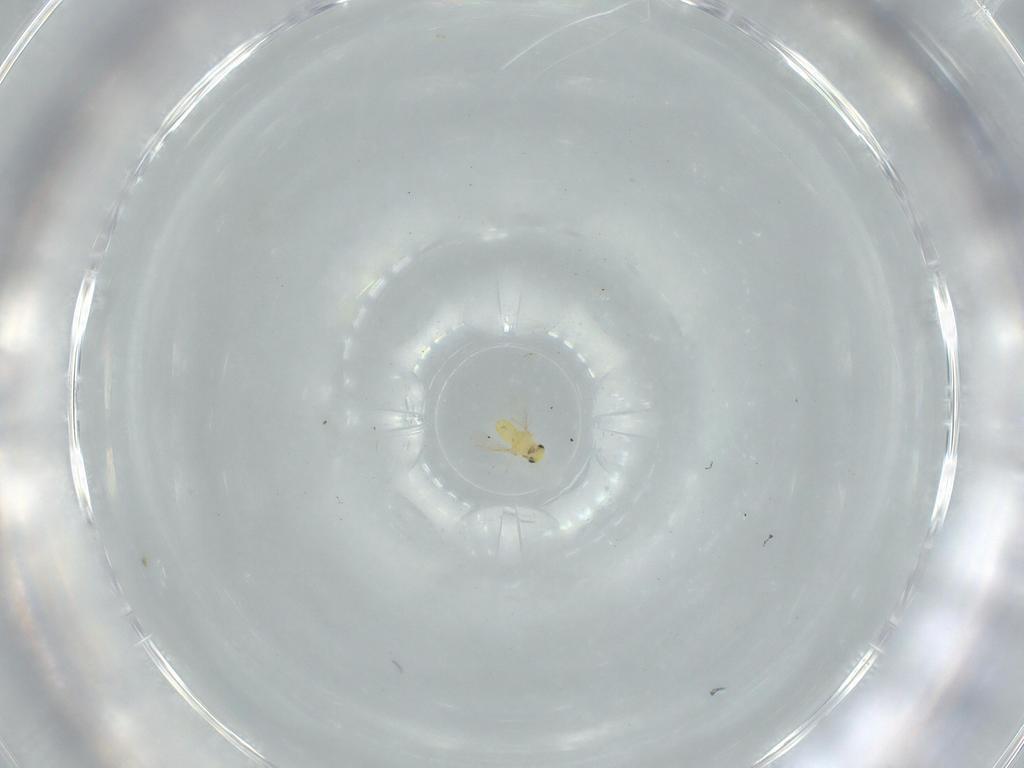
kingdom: Animalia
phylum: Arthropoda
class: Insecta
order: Hymenoptera
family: Trichogrammatidae
